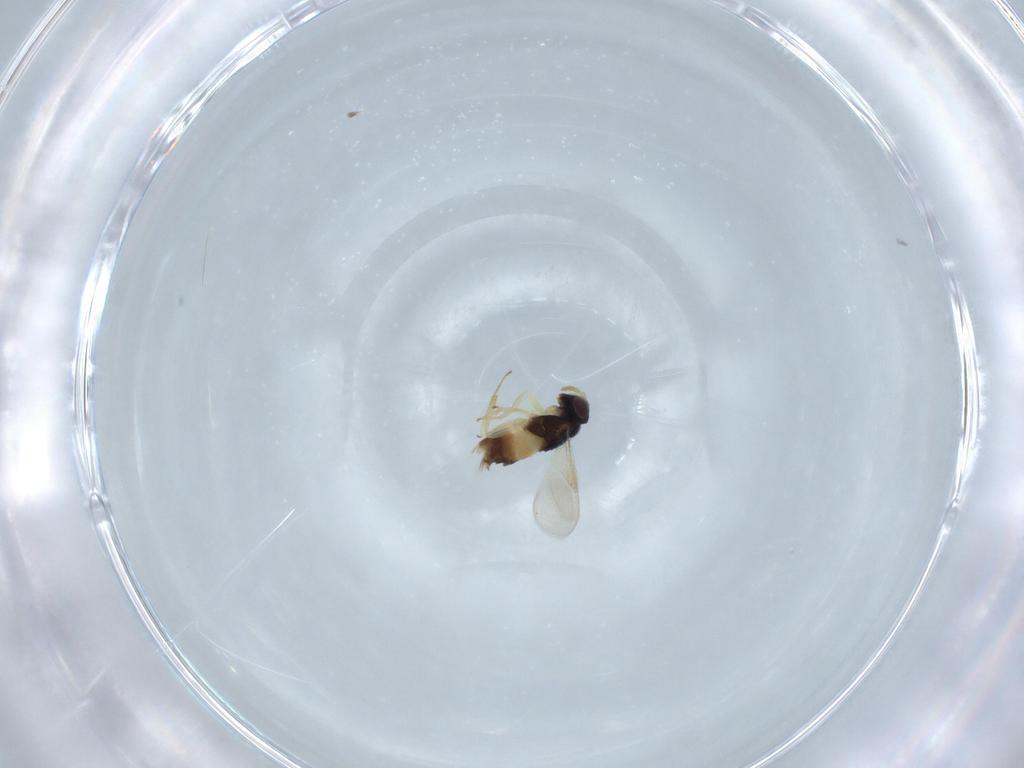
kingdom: Animalia
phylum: Arthropoda
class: Insecta
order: Hymenoptera
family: Aphelinidae
